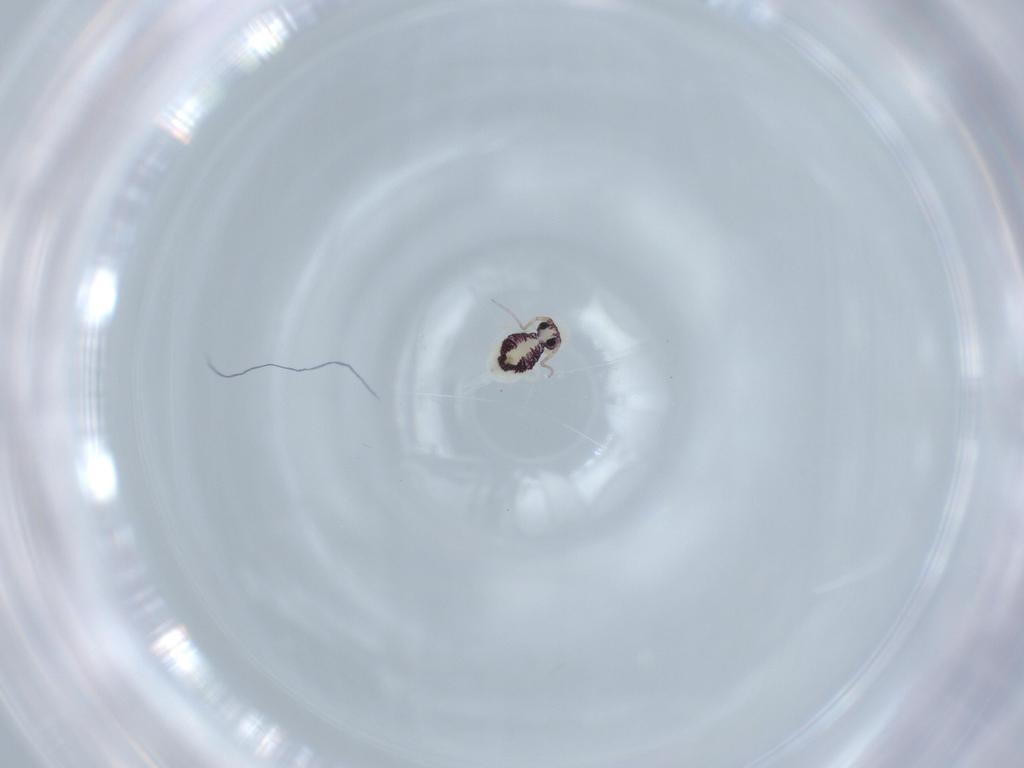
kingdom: Animalia
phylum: Arthropoda
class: Collembola
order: Symphypleona
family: Bourletiellidae
